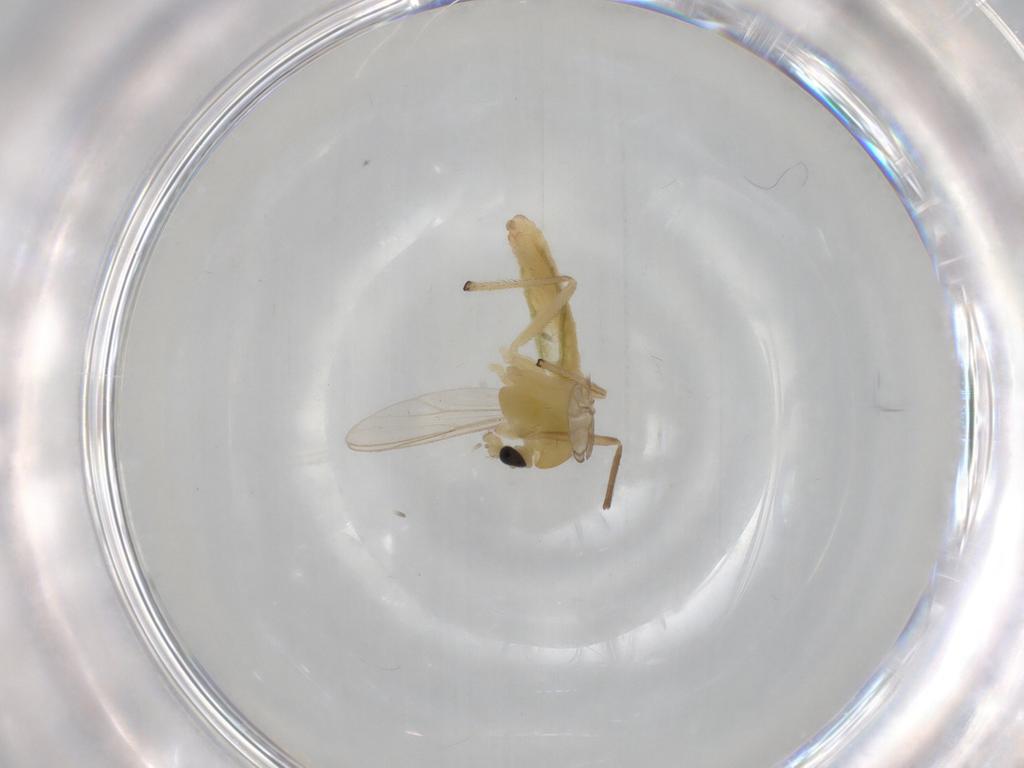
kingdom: Animalia
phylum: Arthropoda
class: Insecta
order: Diptera
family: Chironomidae
